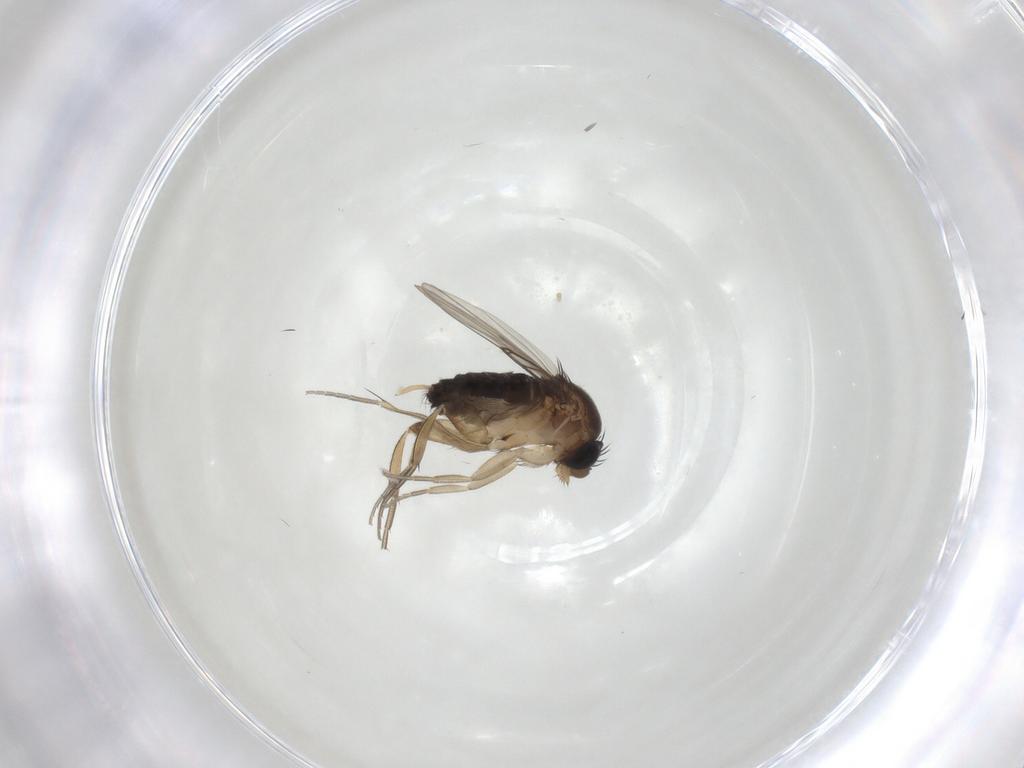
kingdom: Animalia
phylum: Arthropoda
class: Insecta
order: Diptera
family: Phoridae
